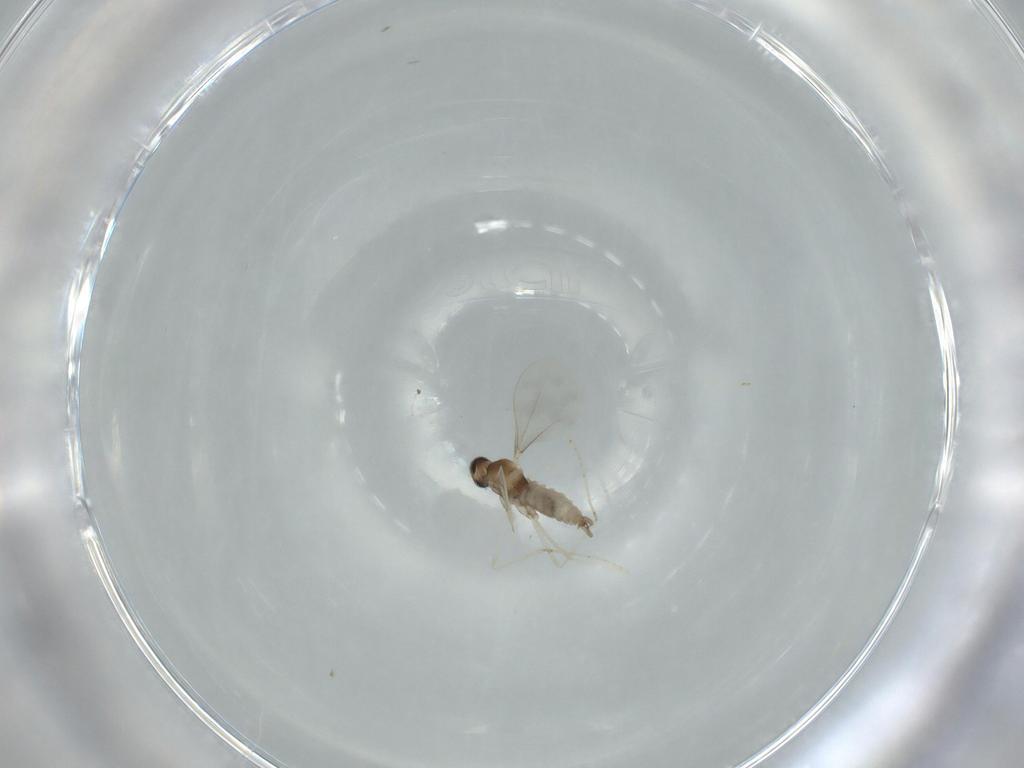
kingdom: Animalia
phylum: Arthropoda
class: Insecta
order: Diptera
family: Cecidomyiidae
